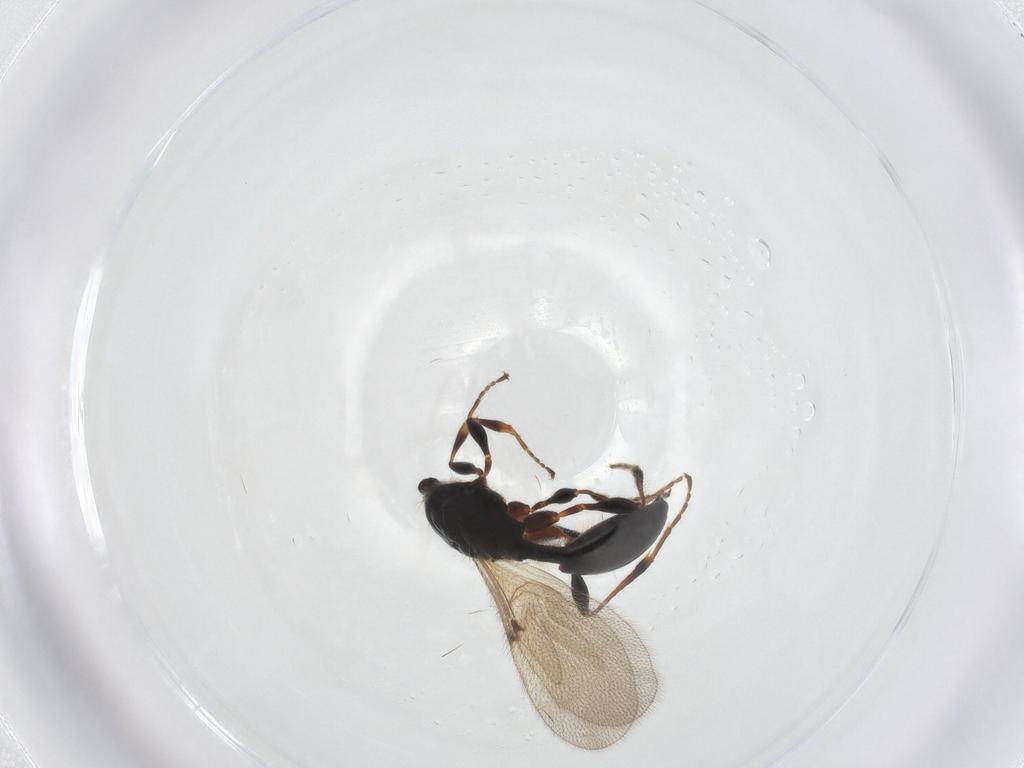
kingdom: Animalia
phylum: Arthropoda
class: Insecta
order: Hymenoptera
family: Diapriidae
